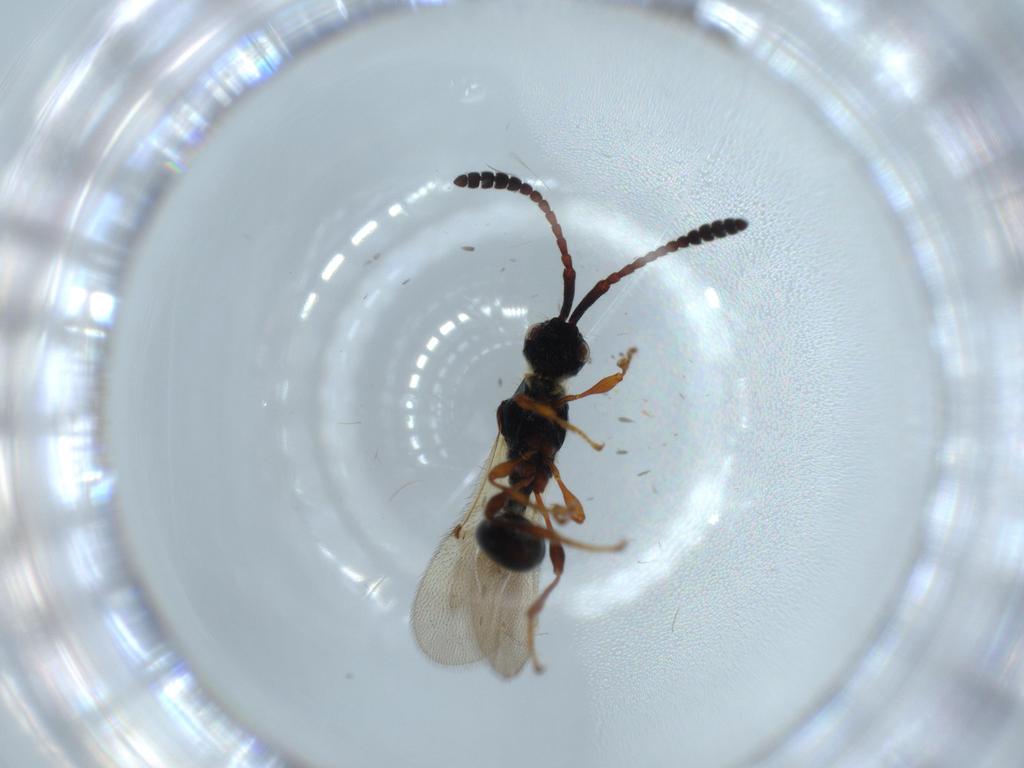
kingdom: Animalia
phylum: Arthropoda
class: Insecta
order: Hymenoptera
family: Diapriidae
